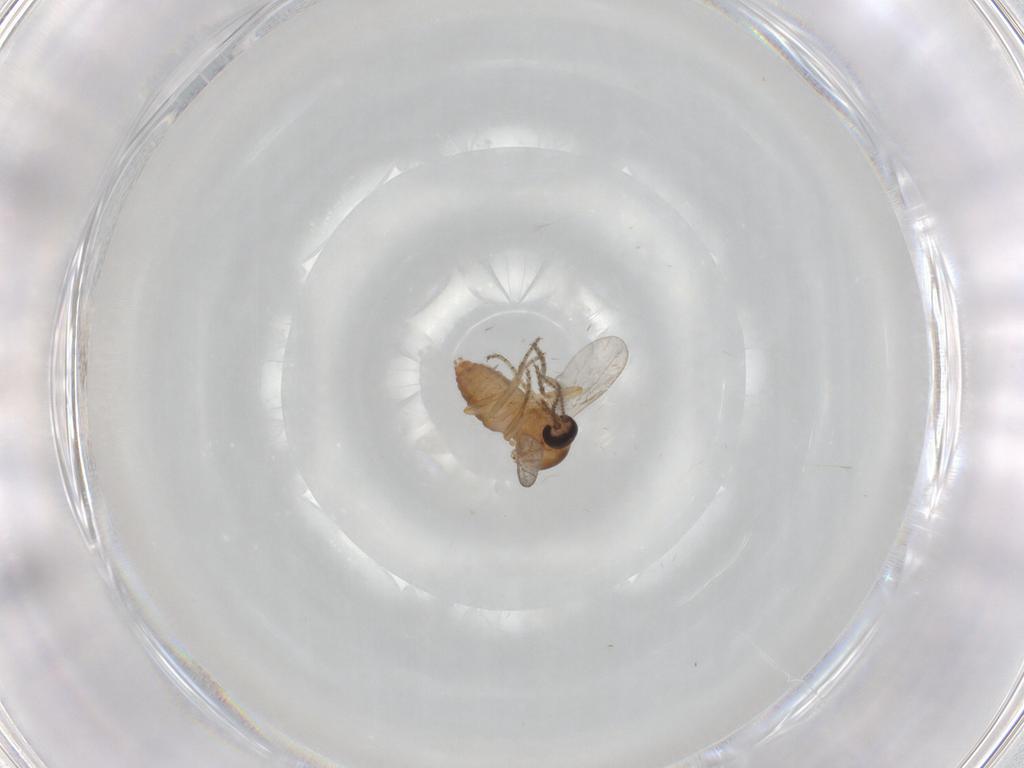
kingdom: Animalia
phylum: Arthropoda
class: Insecta
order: Diptera
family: Ceratopogonidae
